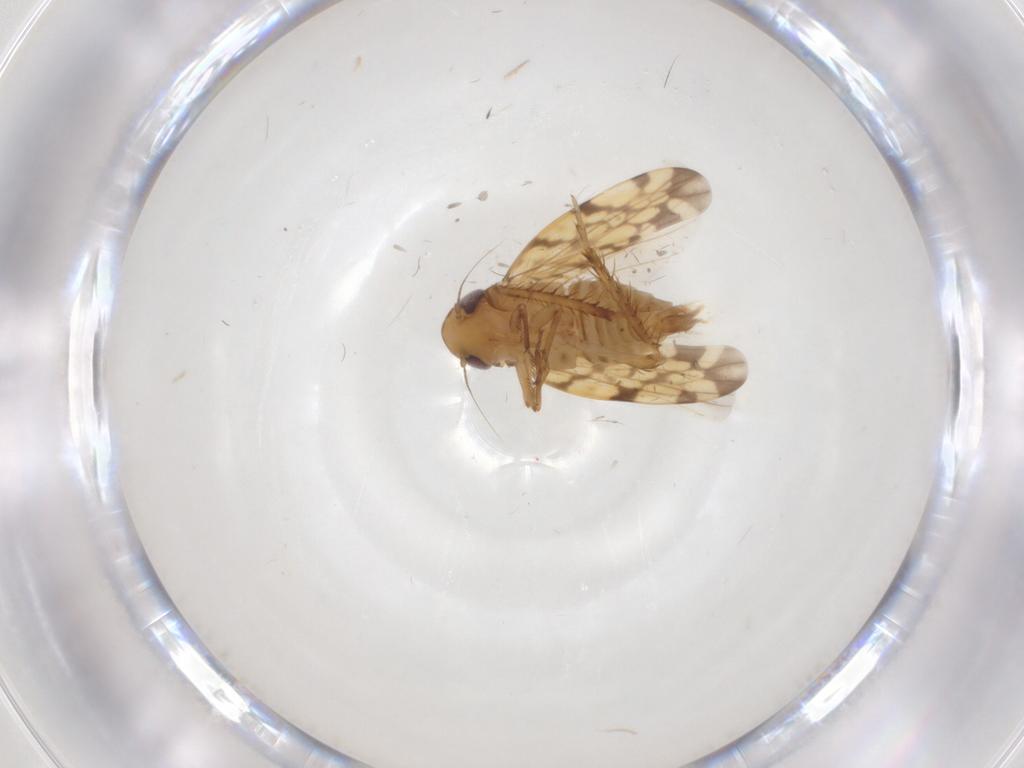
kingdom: Animalia
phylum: Arthropoda
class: Insecta
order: Hemiptera
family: Cicadellidae
